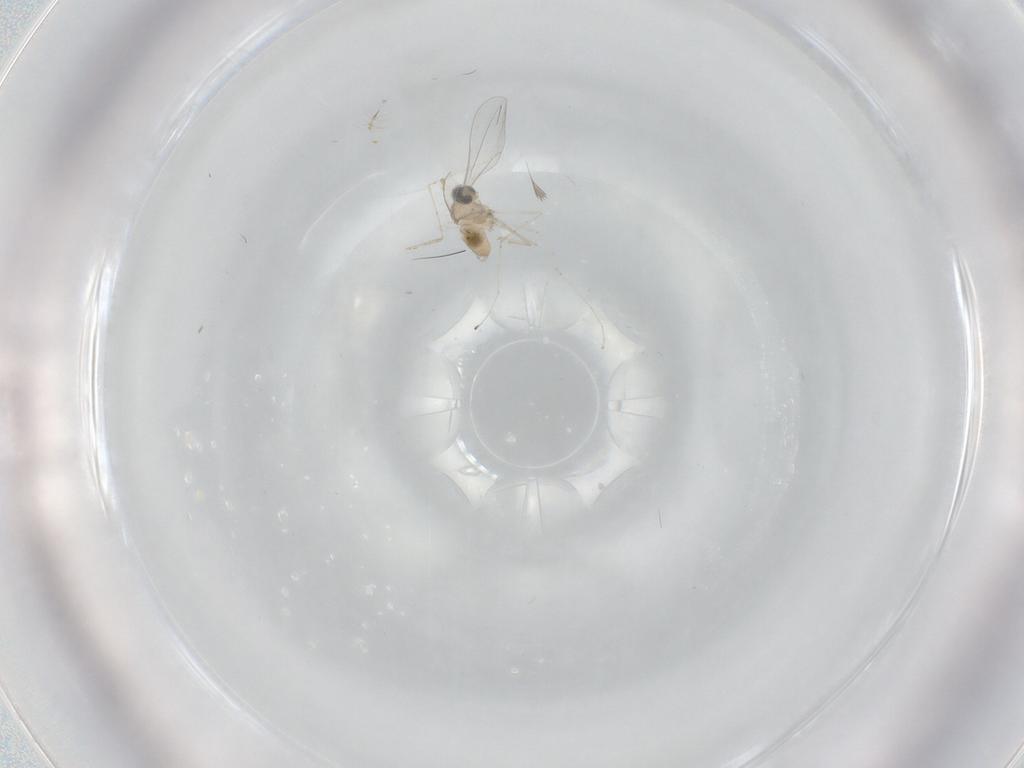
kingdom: Animalia
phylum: Arthropoda
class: Insecta
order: Diptera
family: Cecidomyiidae
